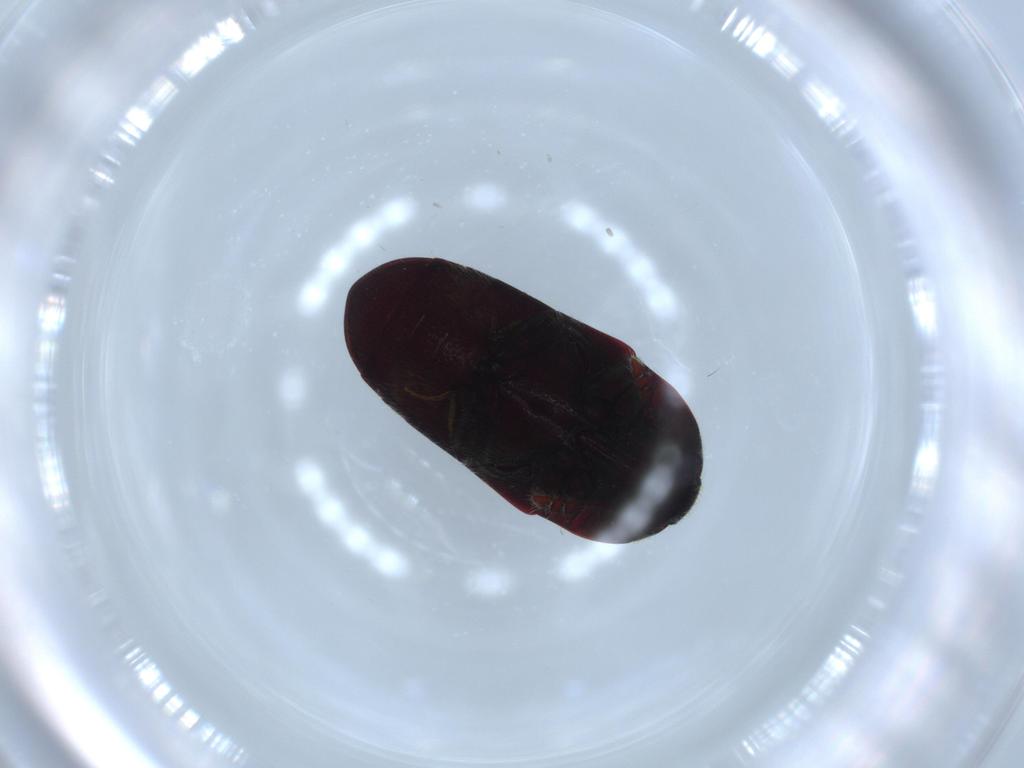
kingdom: Animalia
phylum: Arthropoda
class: Insecta
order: Coleoptera
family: Throscidae
